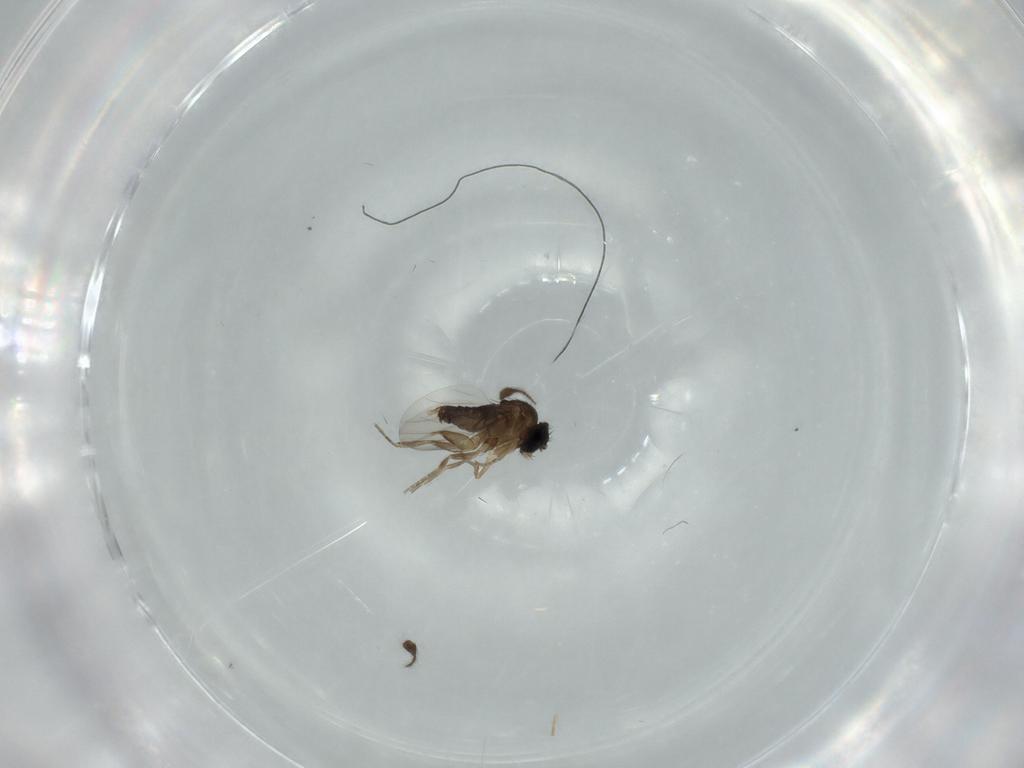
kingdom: Animalia
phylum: Arthropoda
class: Insecta
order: Diptera
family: Phoridae
